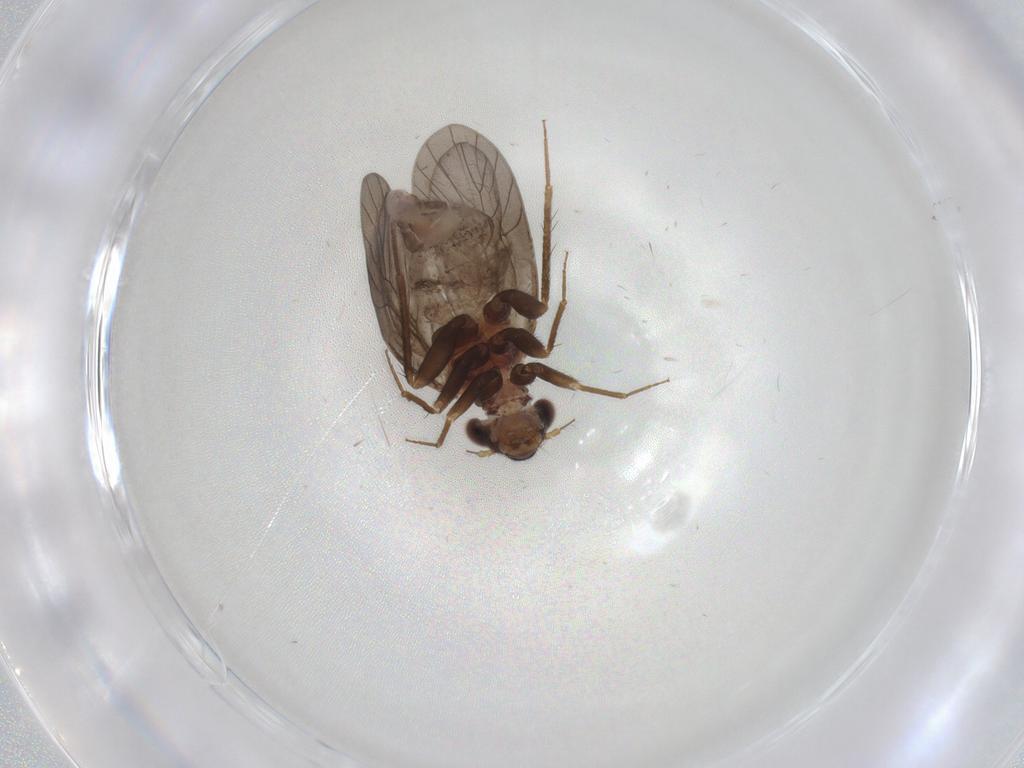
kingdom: Animalia
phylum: Arthropoda
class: Insecta
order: Psocodea
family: Lepidopsocidae
